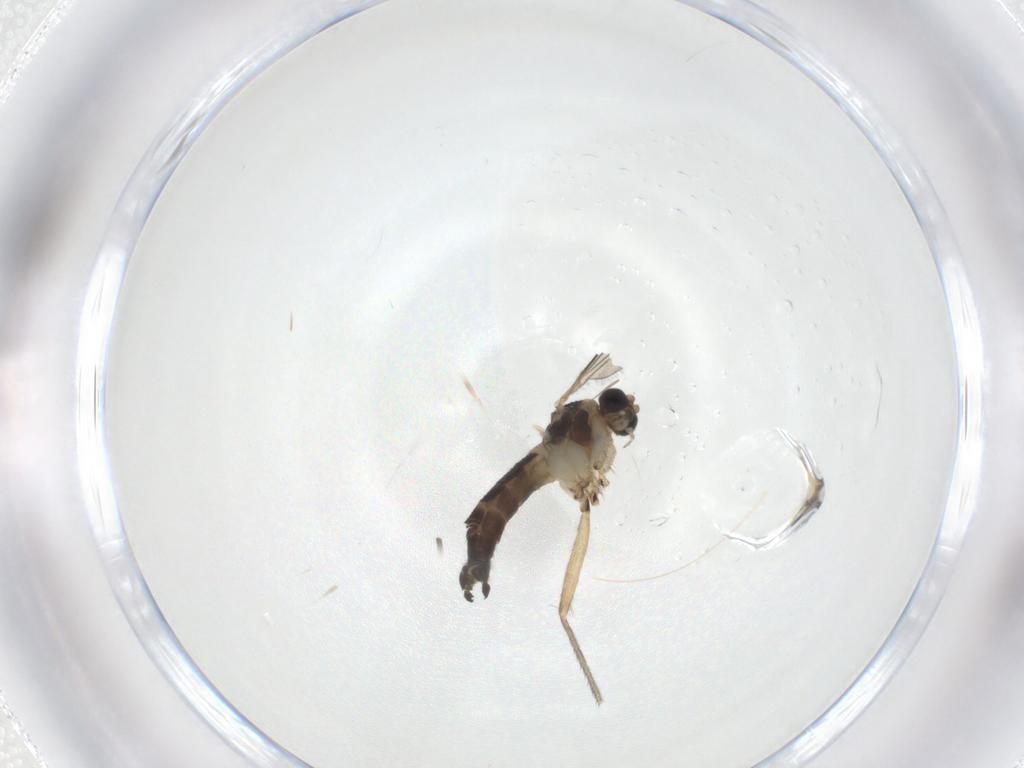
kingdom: Animalia
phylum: Arthropoda
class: Insecta
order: Diptera
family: Sciaridae
